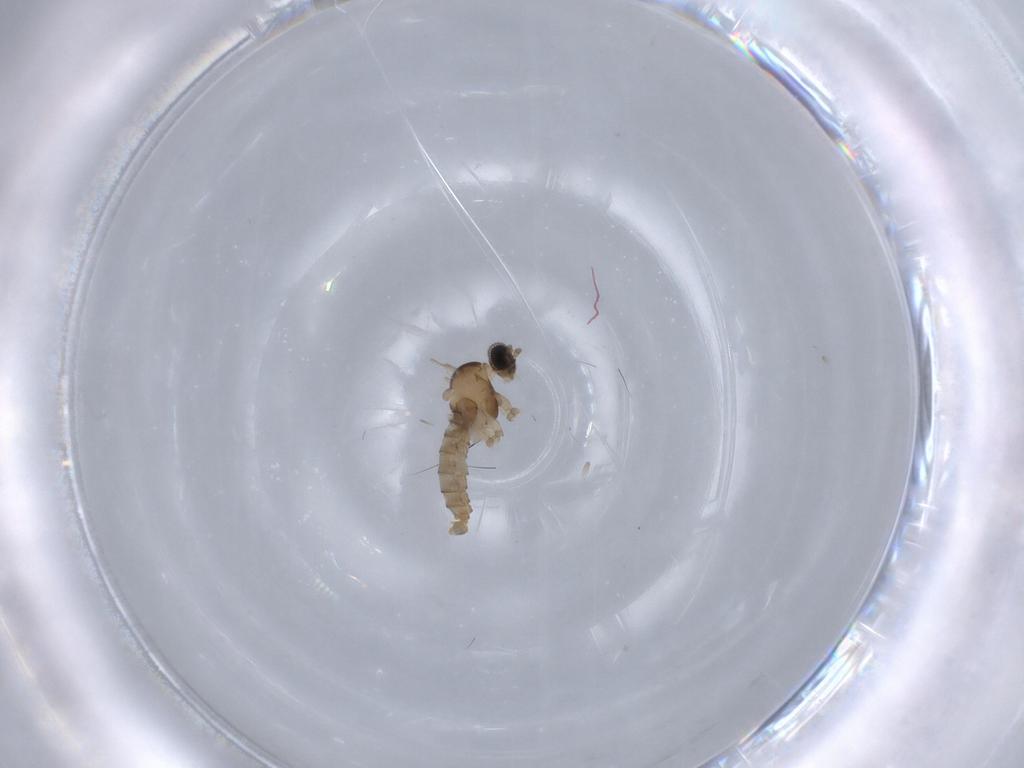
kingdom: Animalia
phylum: Arthropoda
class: Insecta
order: Diptera
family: Cecidomyiidae
